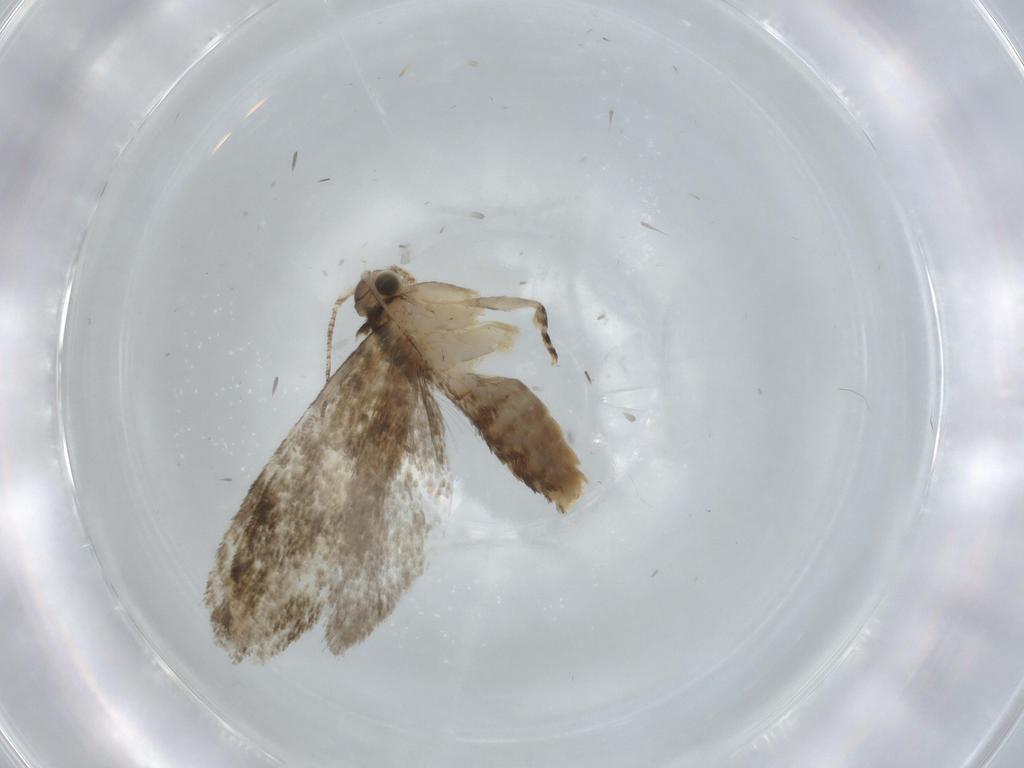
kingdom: Animalia
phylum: Arthropoda
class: Insecta
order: Lepidoptera
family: Tineidae
